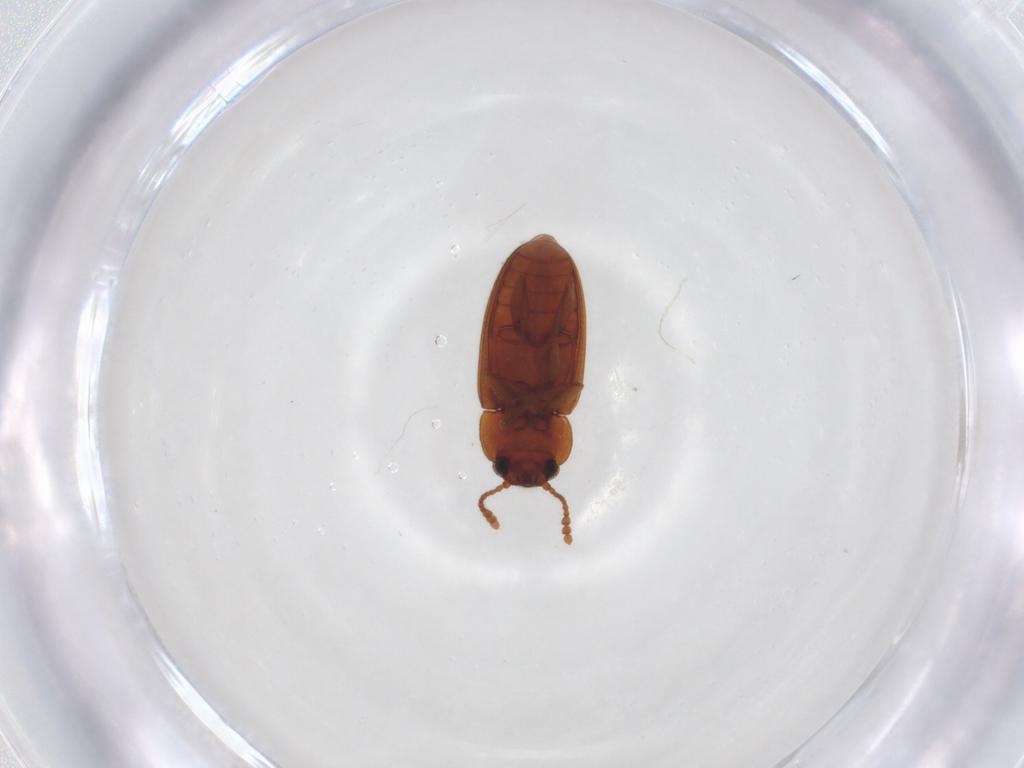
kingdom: Animalia
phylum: Arthropoda
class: Insecta
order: Coleoptera
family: Erotylidae
